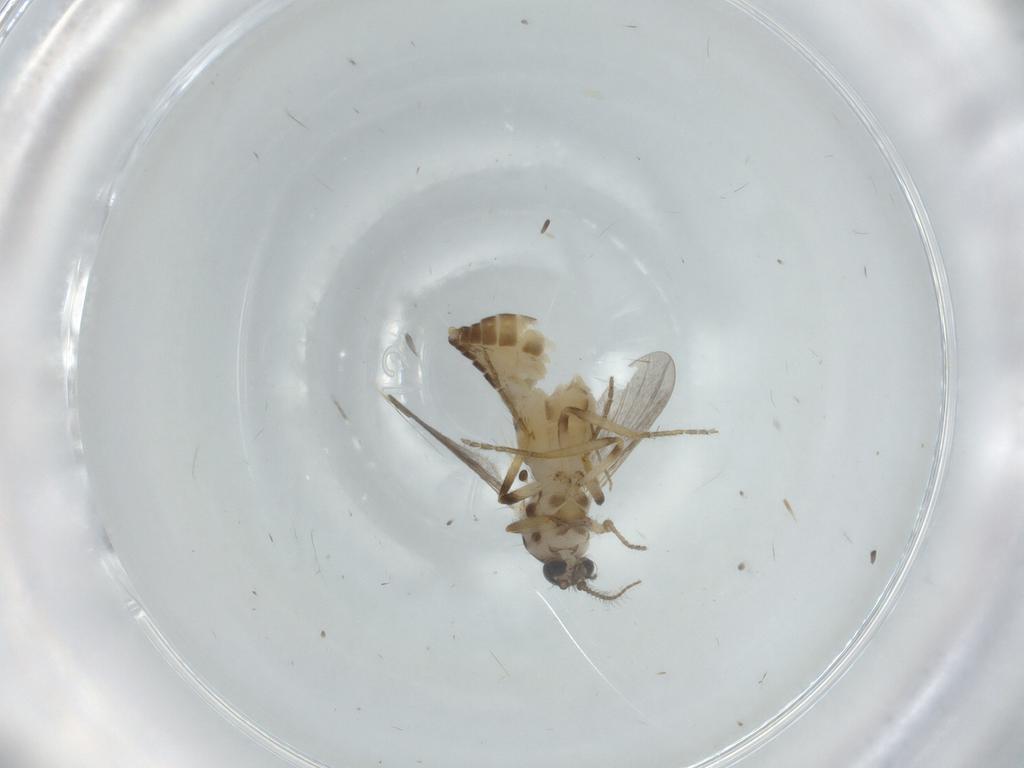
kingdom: Animalia
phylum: Arthropoda
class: Insecta
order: Diptera
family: Ceratopogonidae
